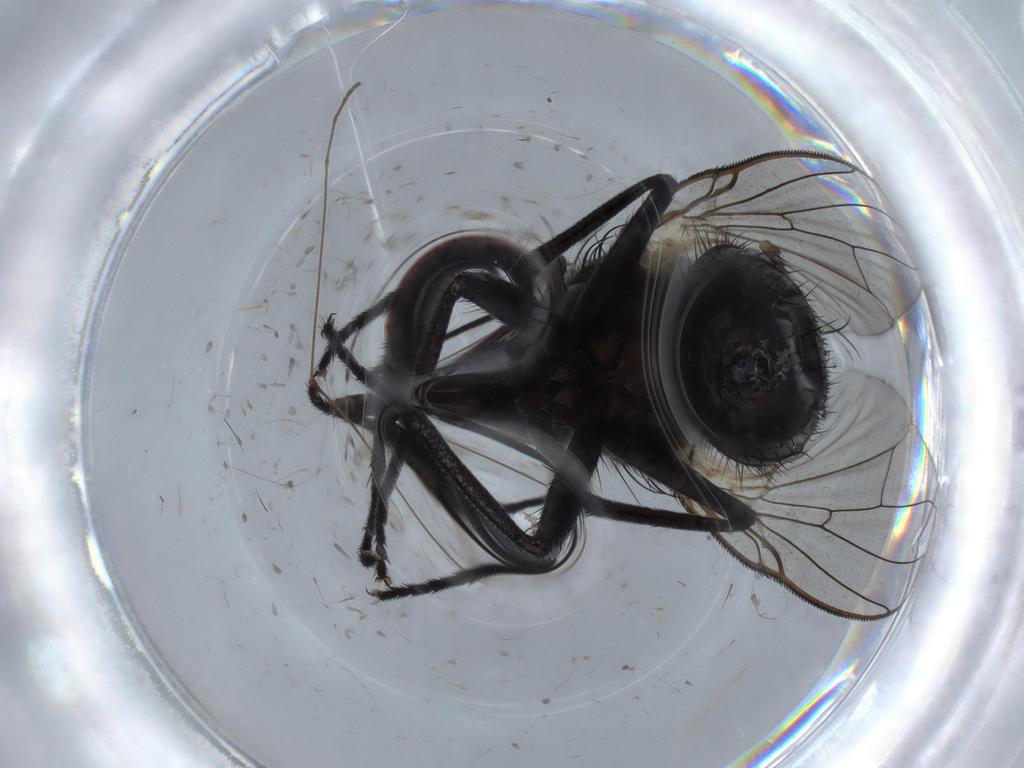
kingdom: Animalia
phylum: Arthropoda
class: Insecta
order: Diptera
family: Muscidae
